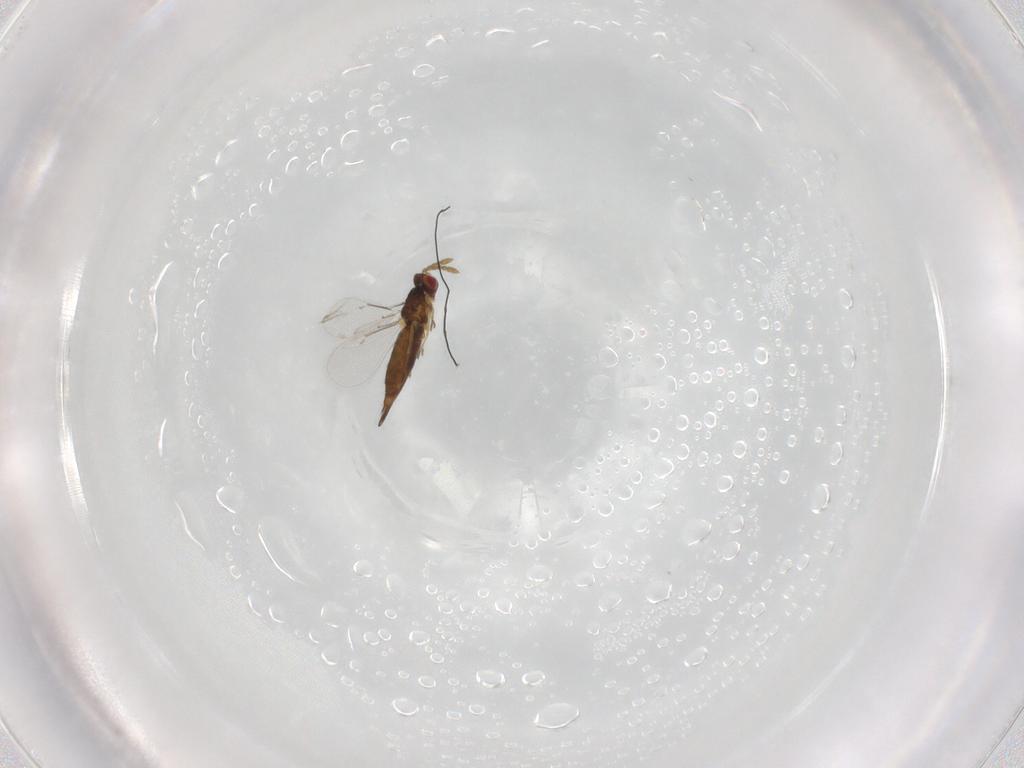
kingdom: Animalia
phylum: Arthropoda
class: Insecta
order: Hymenoptera
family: Eulophidae
